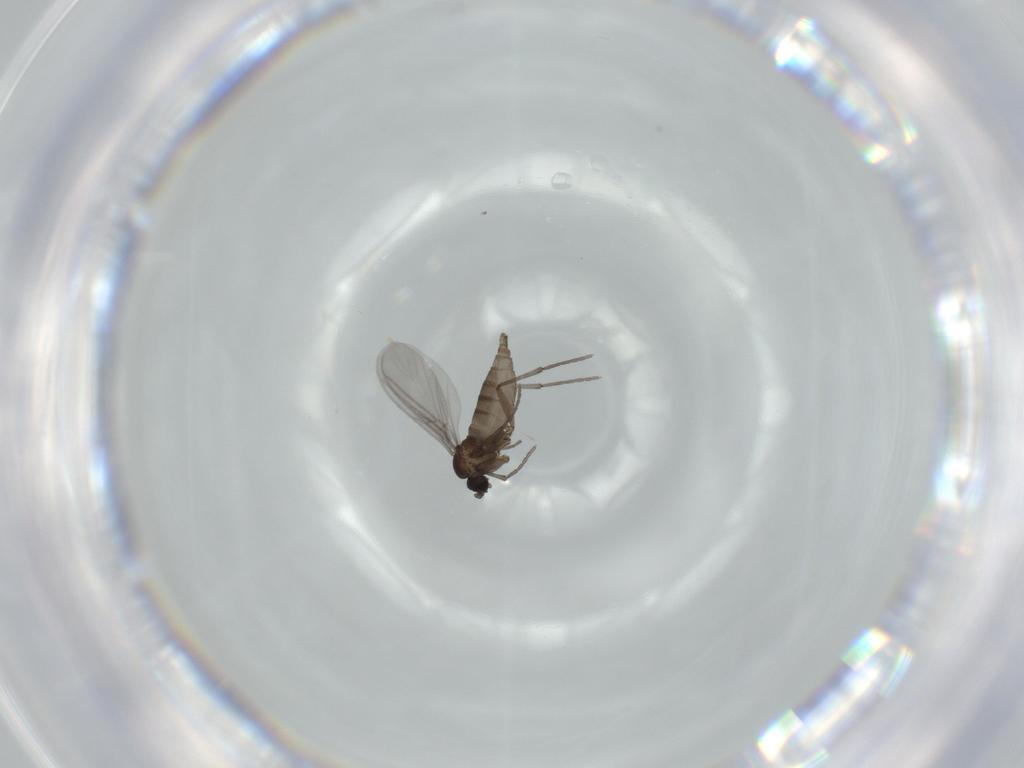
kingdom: Animalia
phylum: Arthropoda
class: Insecta
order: Diptera
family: Sciaridae
